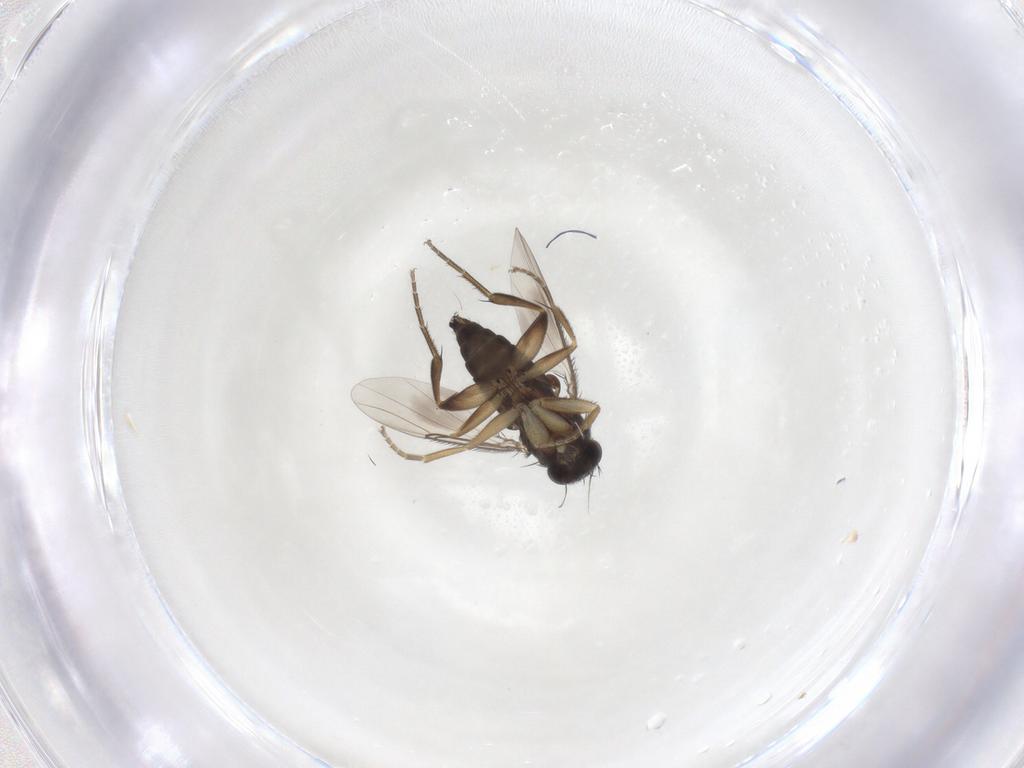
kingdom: Animalia
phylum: Arthropoda
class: Insecta
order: Diptera
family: Phoridae
